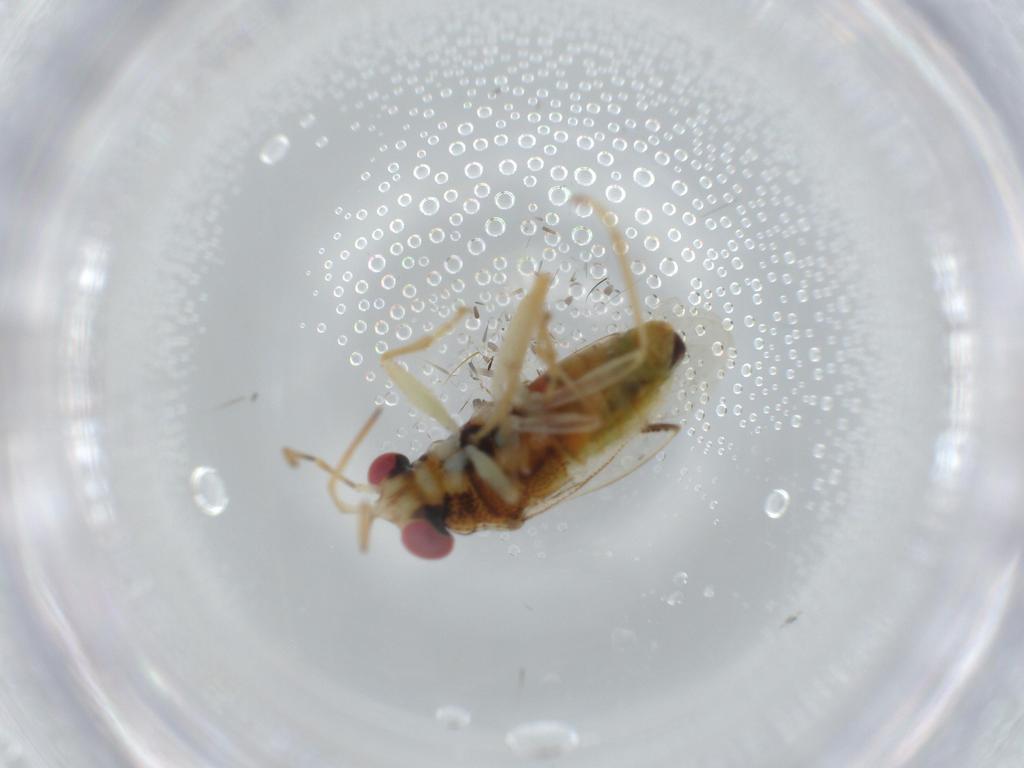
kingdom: Animalia
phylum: Arthropoda
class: Insecta
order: Hemiptera
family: Geocoridae
